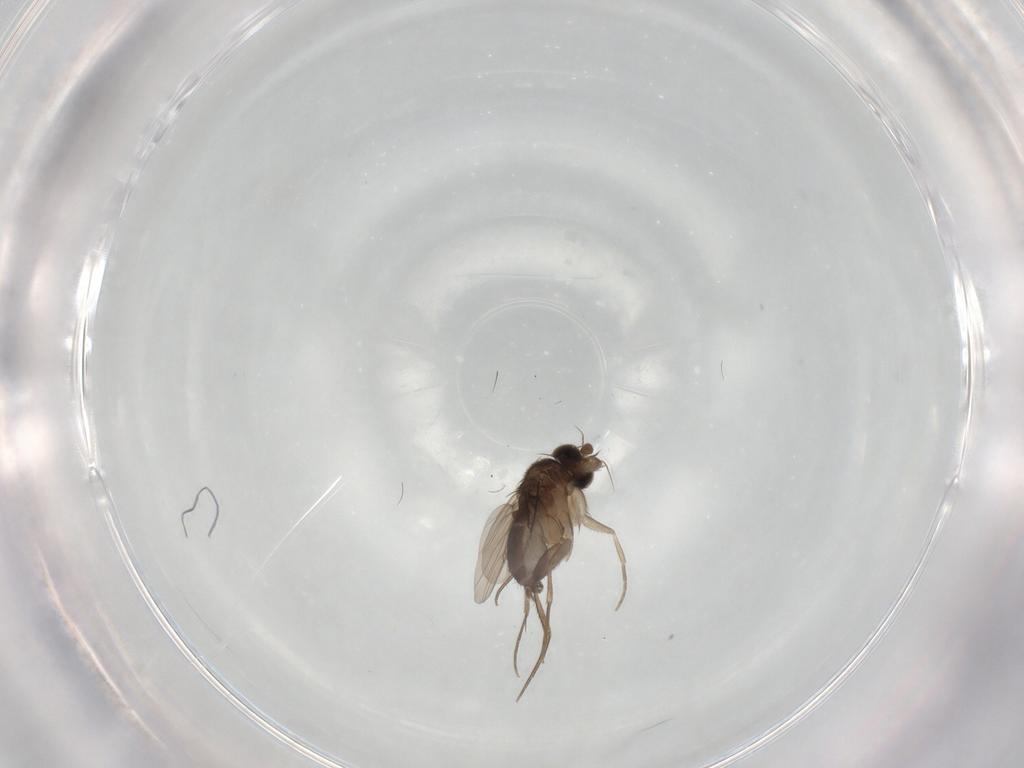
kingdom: Animalia
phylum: Arthropoda
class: Insecta
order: Diptera
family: Phoridae
